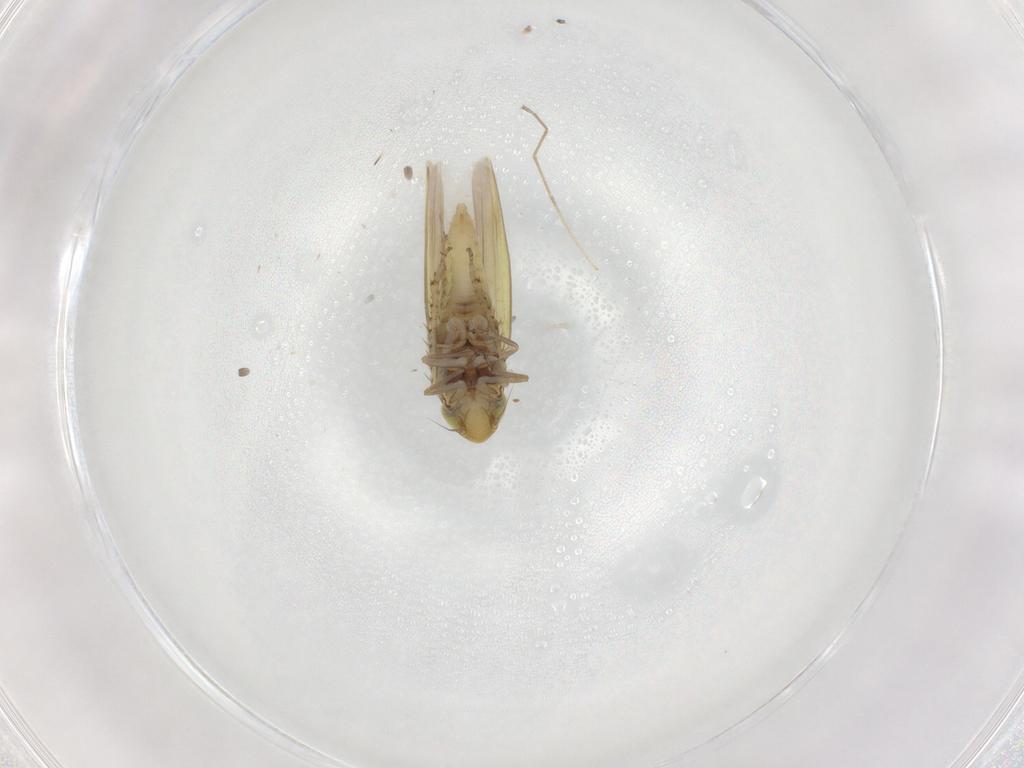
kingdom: Animalia
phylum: Arthropoda
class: Insecta
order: Hemiptera
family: Cicadellidae
